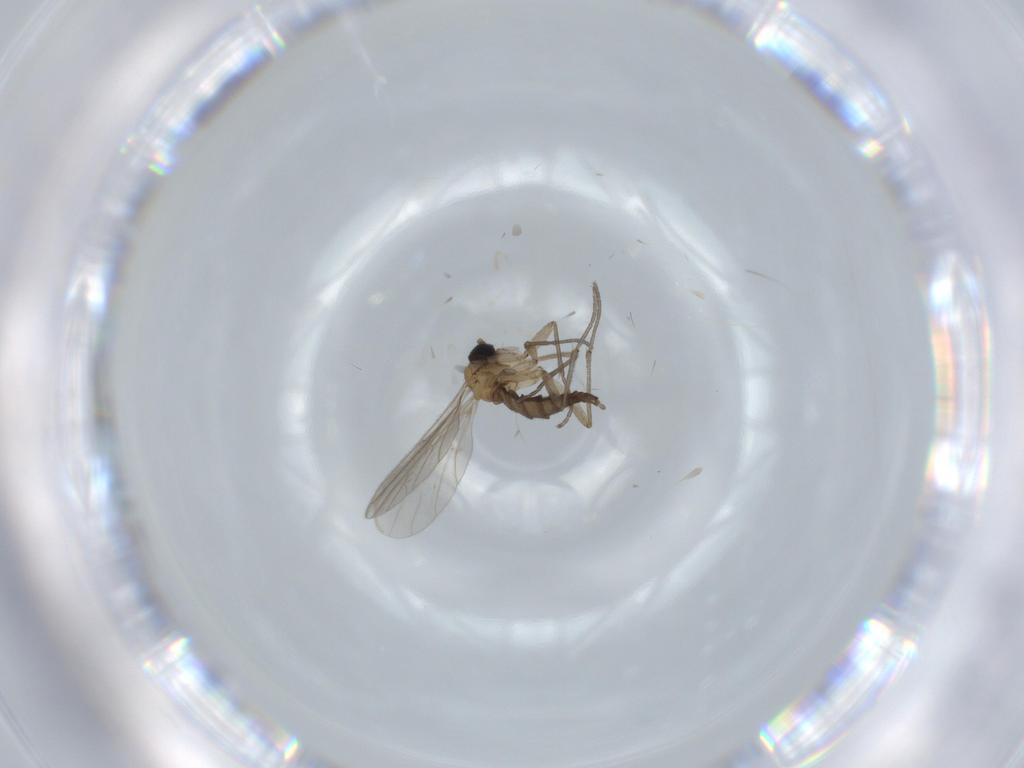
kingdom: Animalia
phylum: Arthropoda
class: Insecta
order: Diptera
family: Sciaridae
